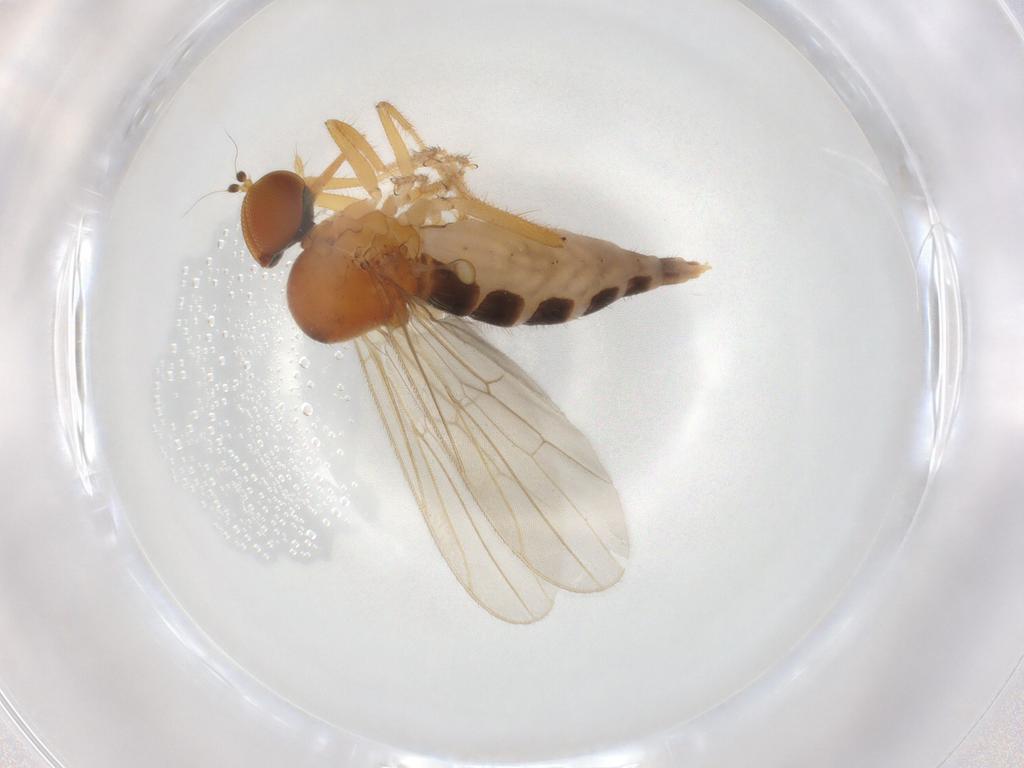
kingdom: Animalia
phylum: Arthropoda
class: Insecta
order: Diptera
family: Hybotidae
